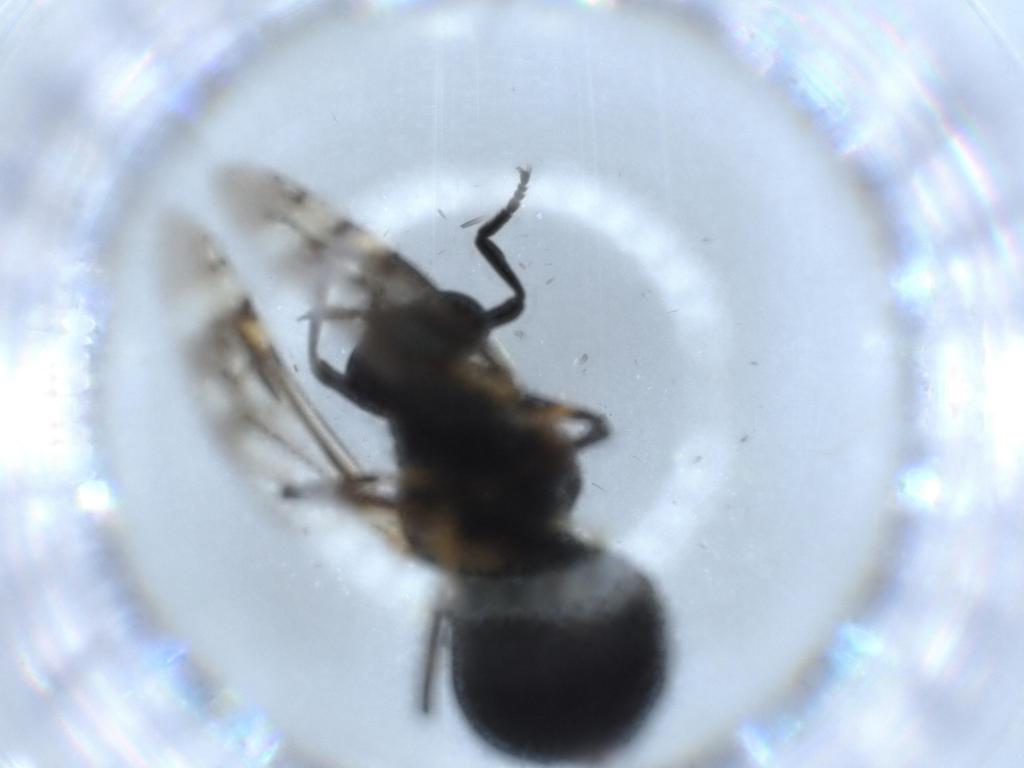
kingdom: Animalia
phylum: Arthropoda
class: Insecta
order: Diptera
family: Stratiomyidae
